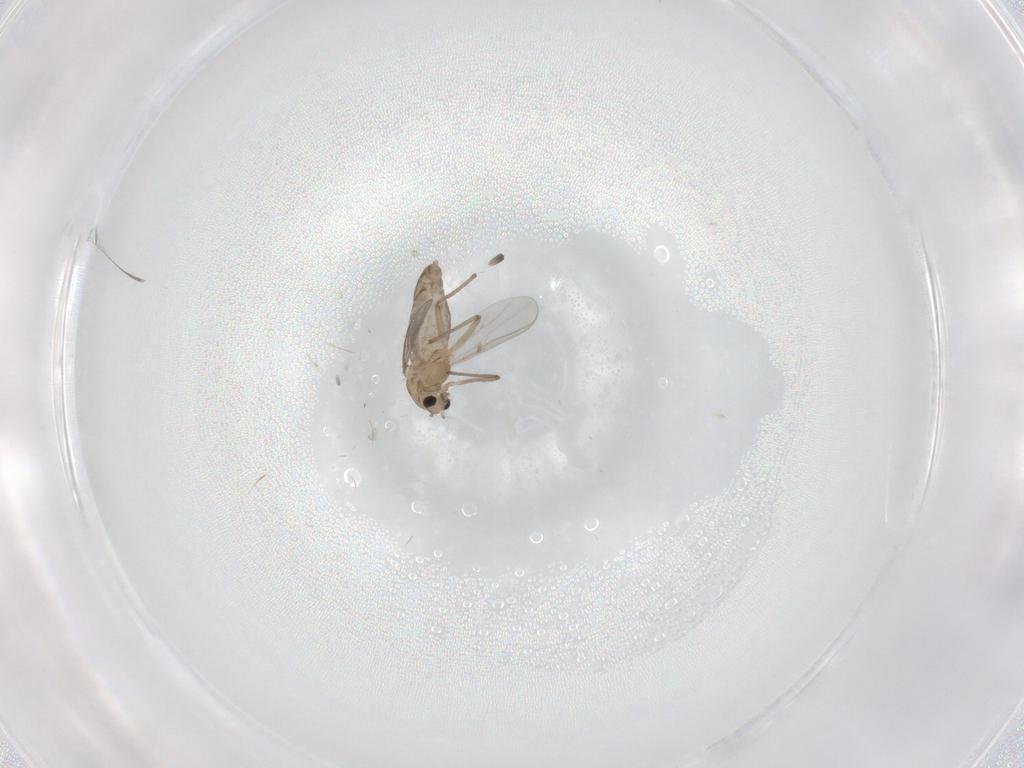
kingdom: Animalia
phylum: Arthropoda
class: Insecta
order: Diptera
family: Chironomidae
